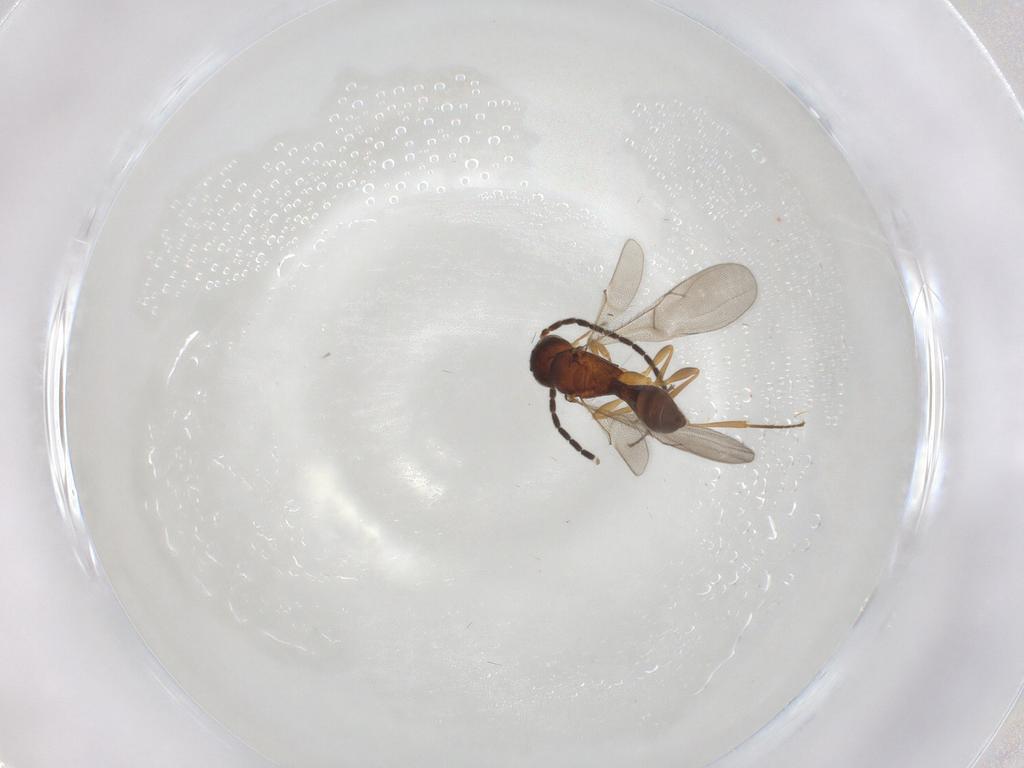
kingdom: Animalia
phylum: Arthropoda
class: Insecta
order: Hymenoptera
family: Scelionidae
